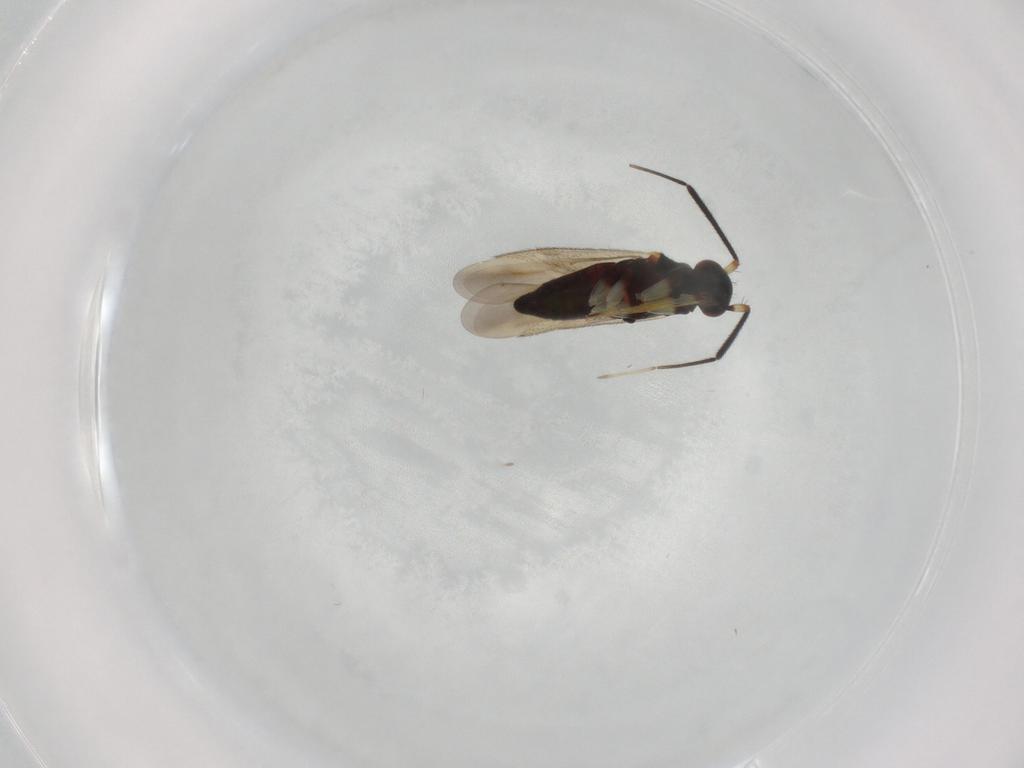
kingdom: Animalia
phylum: Arthropoda
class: Insecta
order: Hemiptera
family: Miridae
